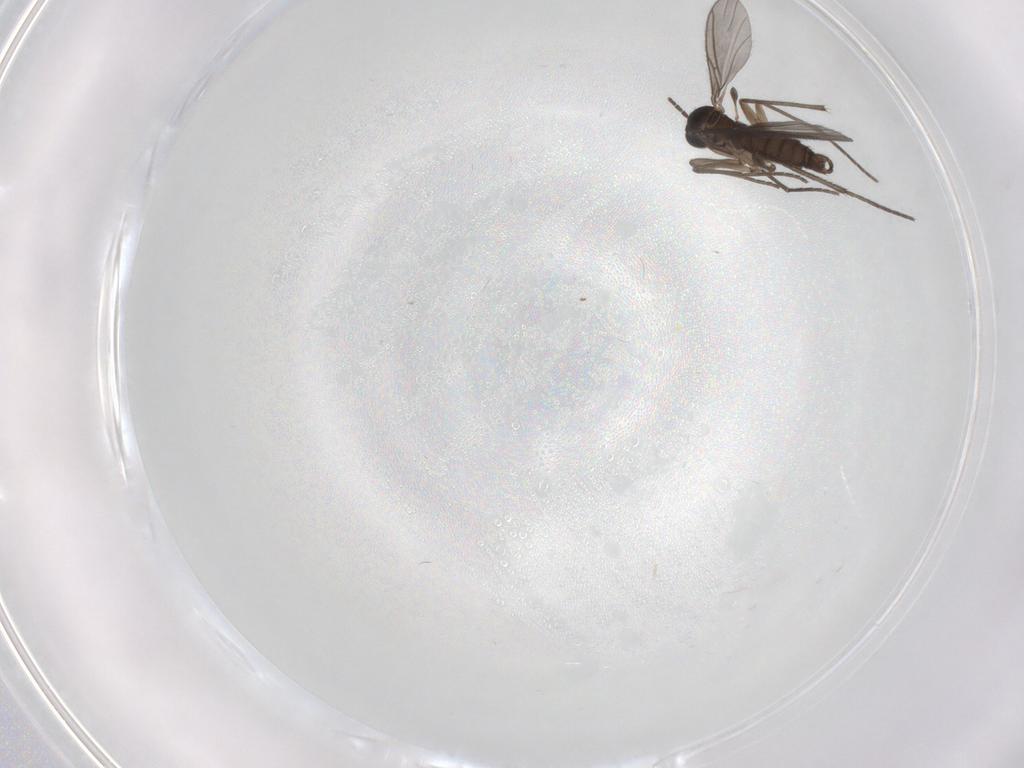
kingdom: Animalia
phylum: Arthropoda
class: Insecta
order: Diptera
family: Sciaridae
